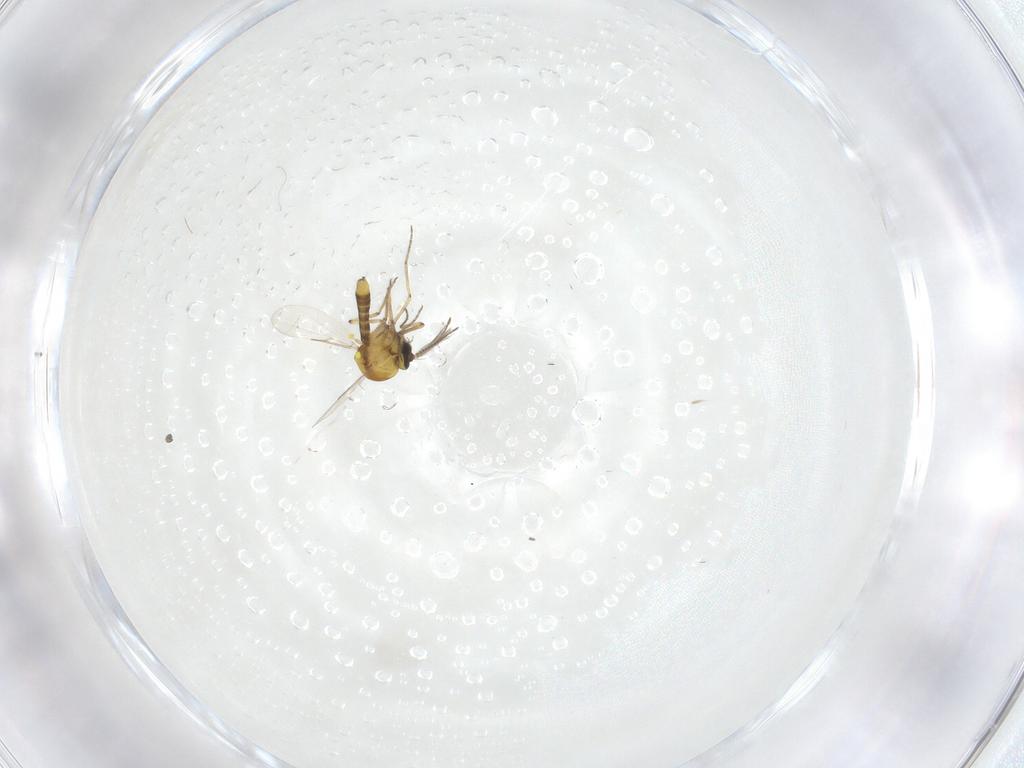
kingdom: Animalia
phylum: Arthropoda
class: Insecta
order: Diptera
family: Ceratopogonidae
